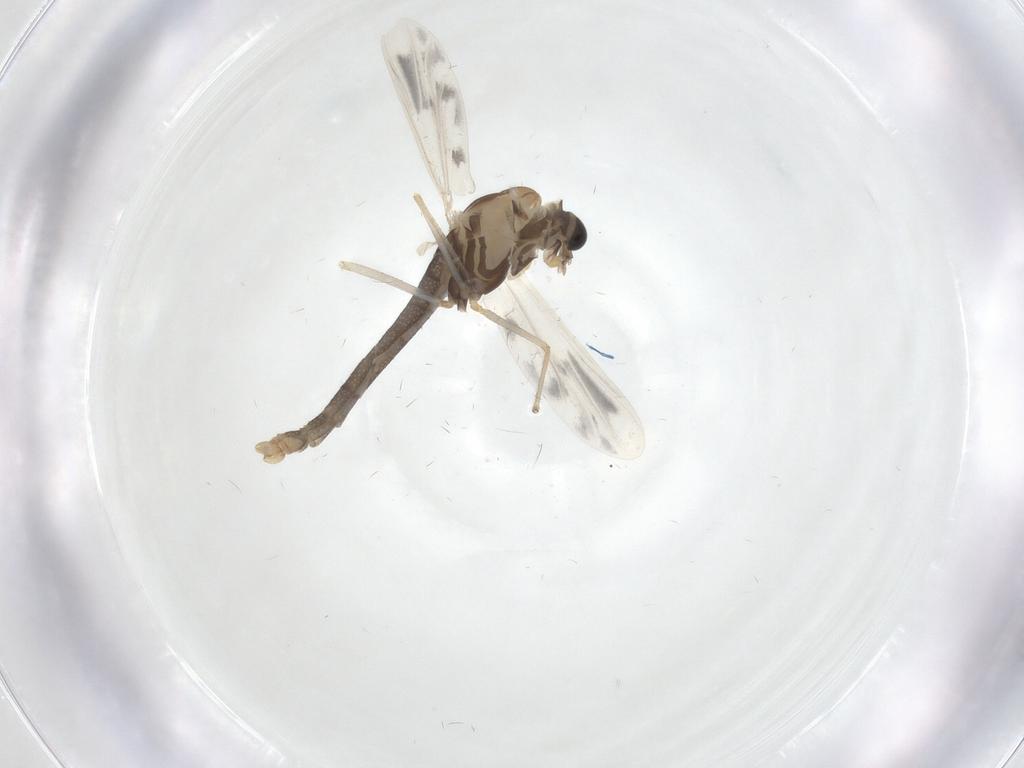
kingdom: Animalia
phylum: Arthropoda
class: Insecta
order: Diptera
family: Chironomidae
